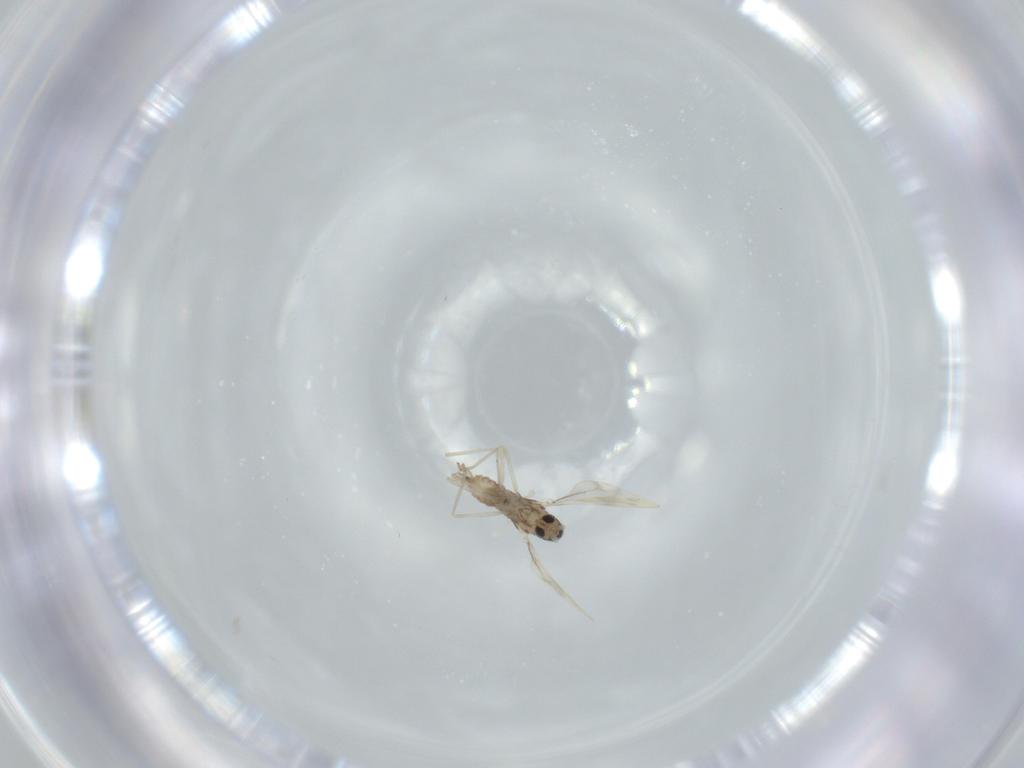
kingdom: Animalia
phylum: Arthropoda
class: Insecta
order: Diptera
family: Cecidomyiidae
